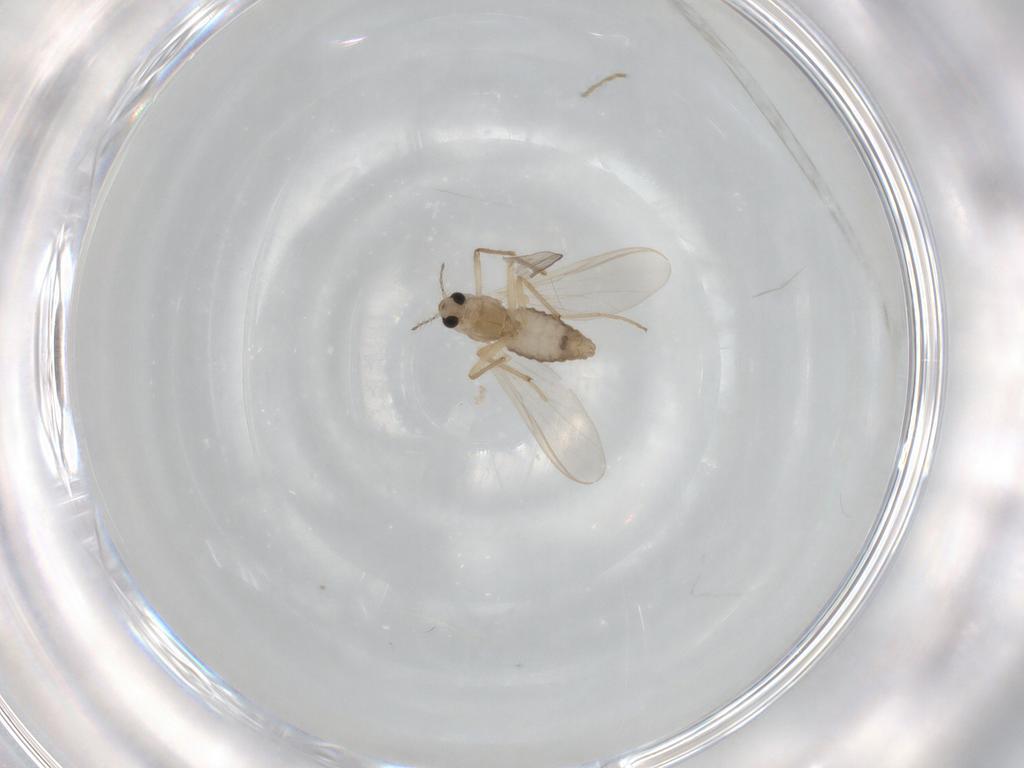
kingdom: Animalia
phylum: Arthropoda
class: Insecta
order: Diptera
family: Chironomidae
